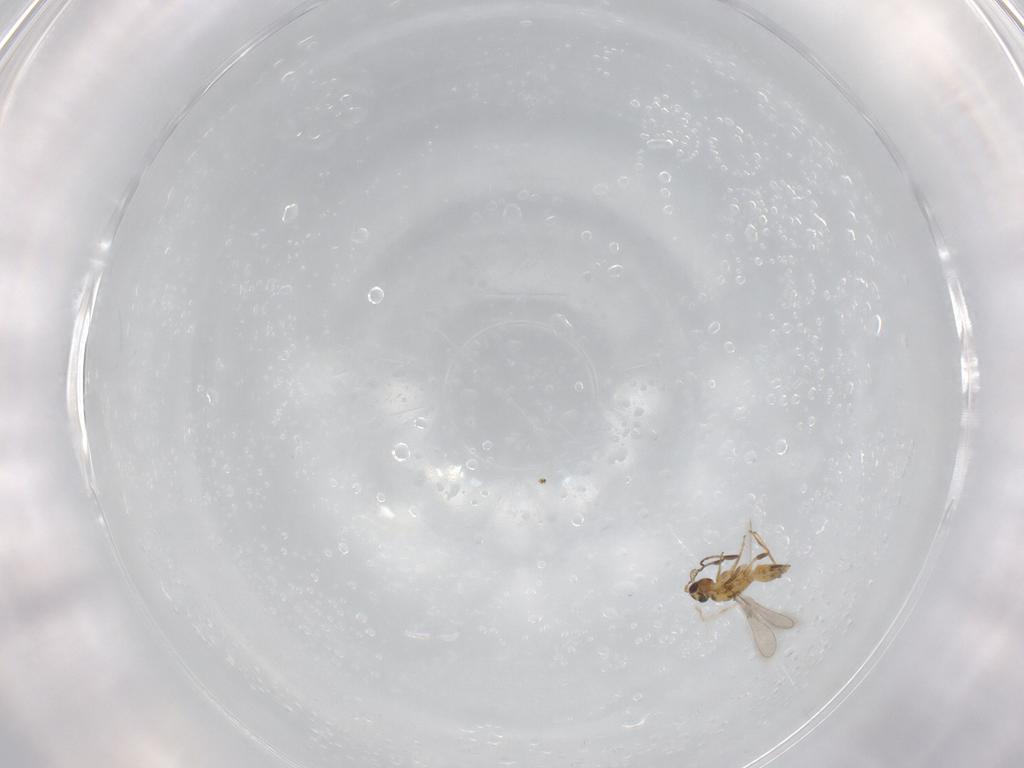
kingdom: Animalia
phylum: Arthropoda
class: Insecta
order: Hymenoptera
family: Mymaridae
